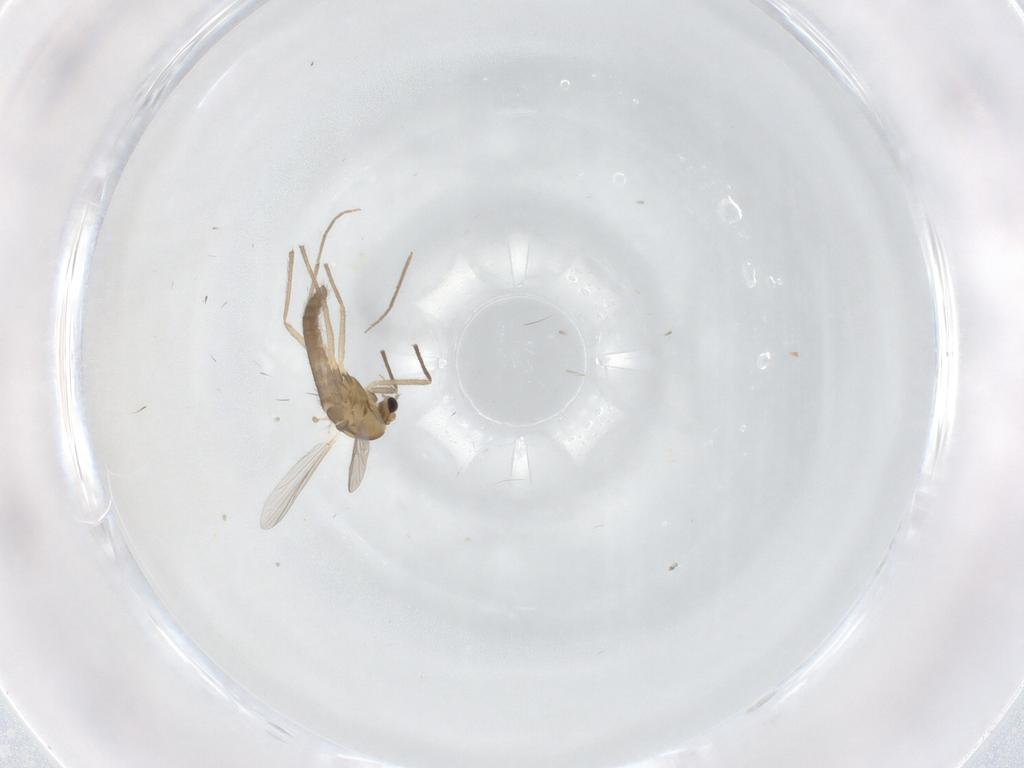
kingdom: Animalia
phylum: Arthropoda
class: Insecta
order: Diptera
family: Chironomidae
